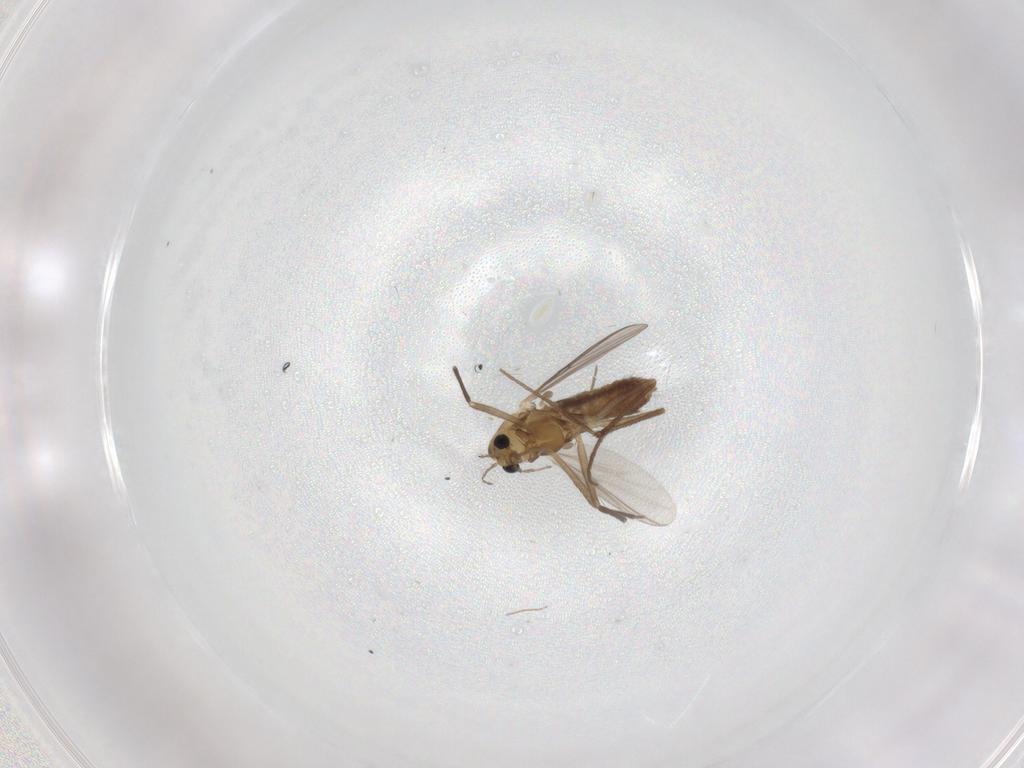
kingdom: Animalia
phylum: Arthropoda
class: Insecta
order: Diptera
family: Chironomidae
